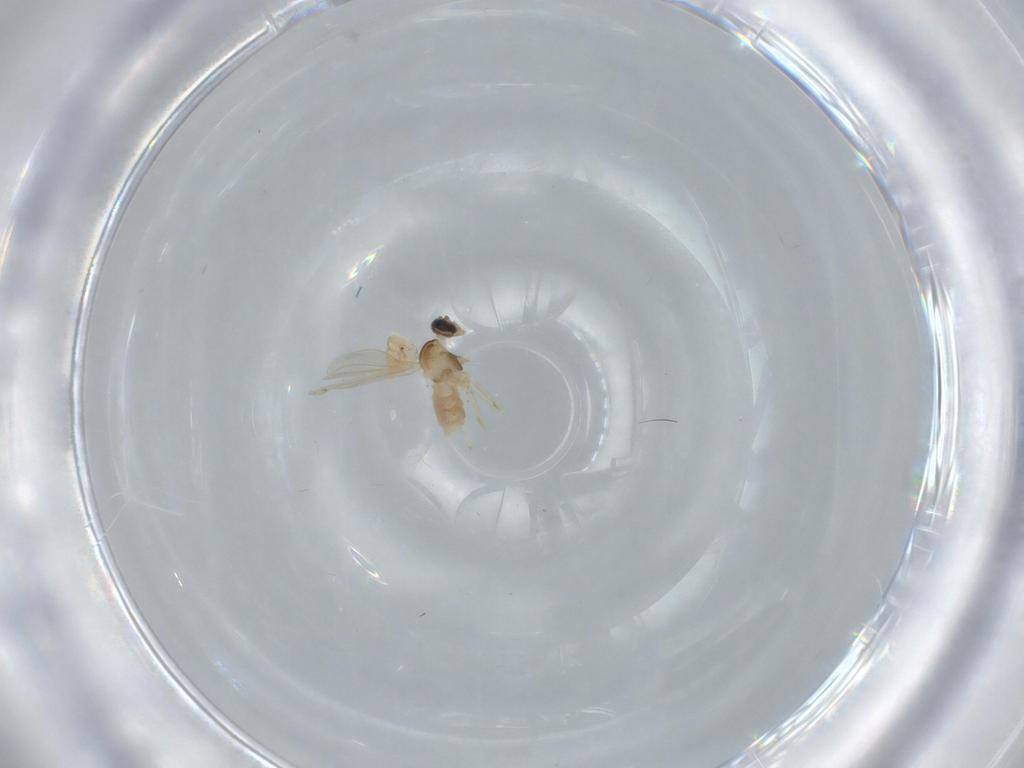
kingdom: Animalia
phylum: Arthropoda
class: Insecta
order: Diptera
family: Cecidomyiidae
